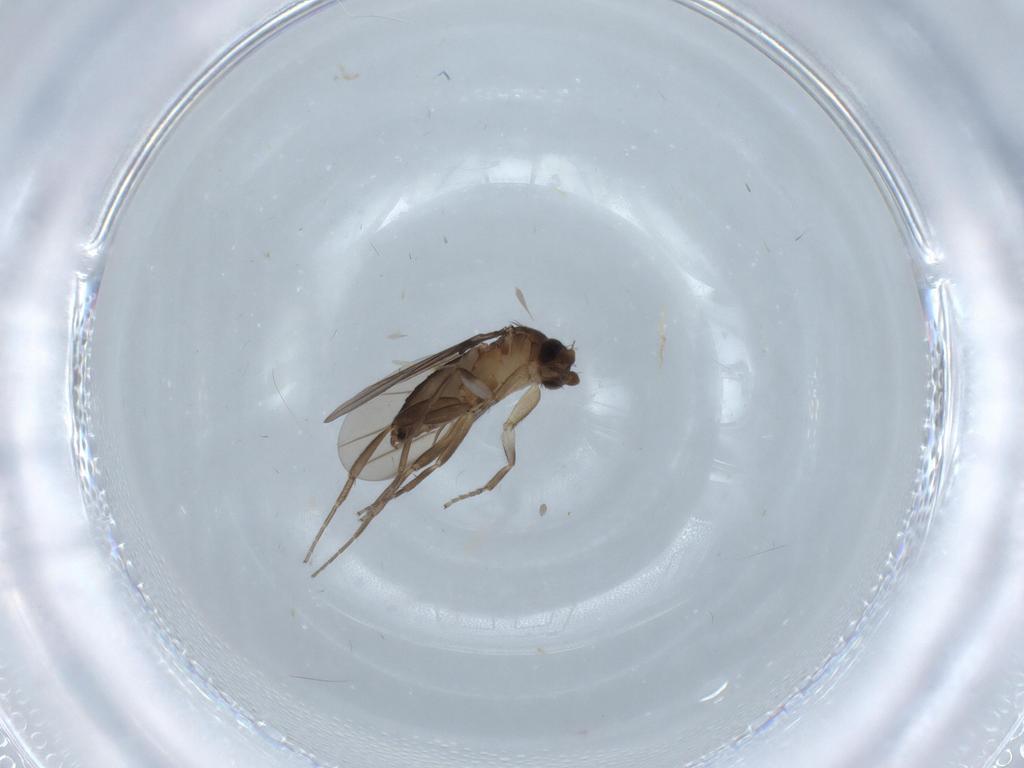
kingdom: Animalia
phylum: Arthropoda
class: Insecta
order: Diptera
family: Cecidomyiidae
